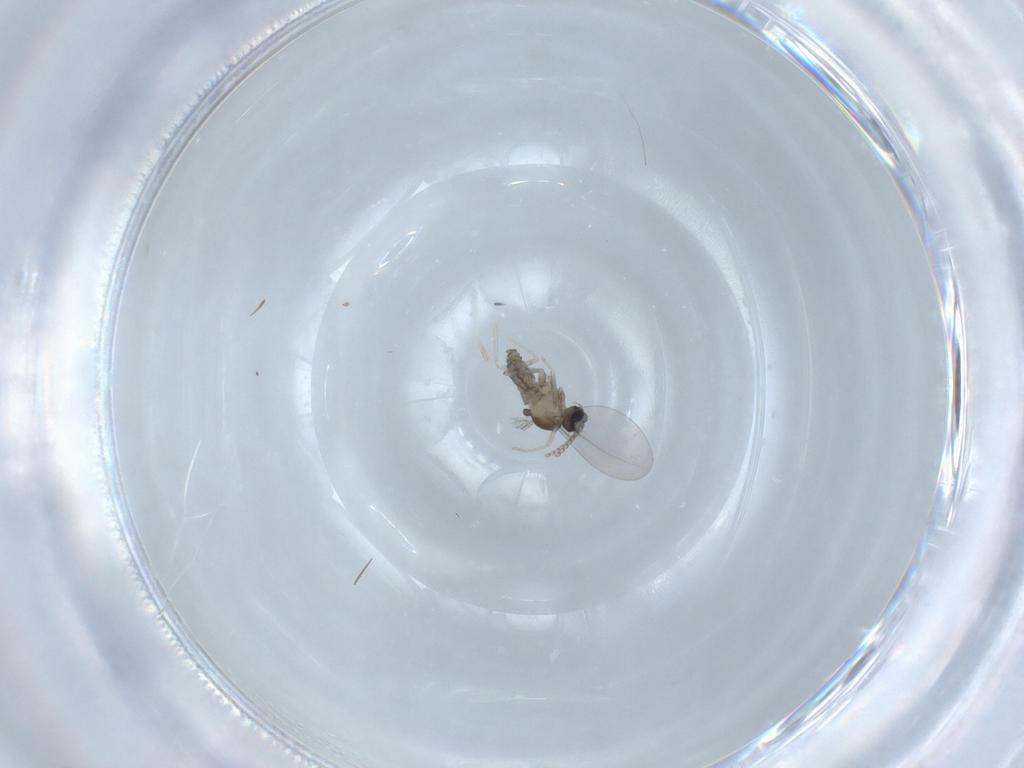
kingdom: Animalia
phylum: Arthropoda
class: Insecta
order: Diptera
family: Cecidomyiidae
